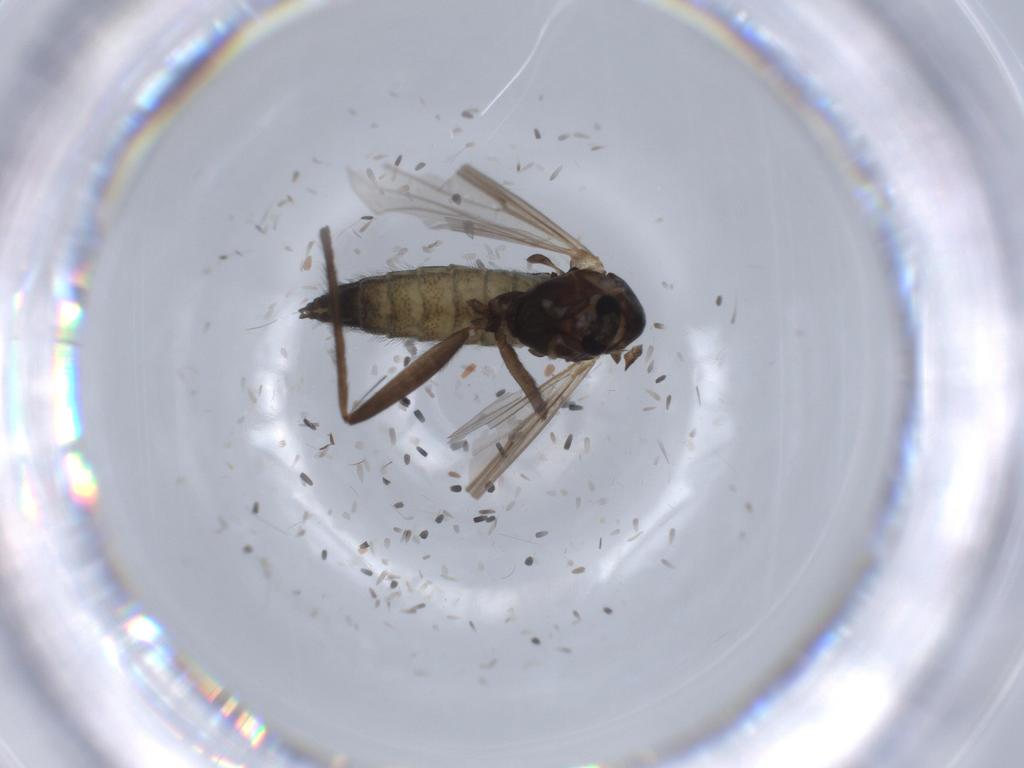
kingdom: Animalia
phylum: Arthropoda
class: Insecta
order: Diptera
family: Chironomidae
